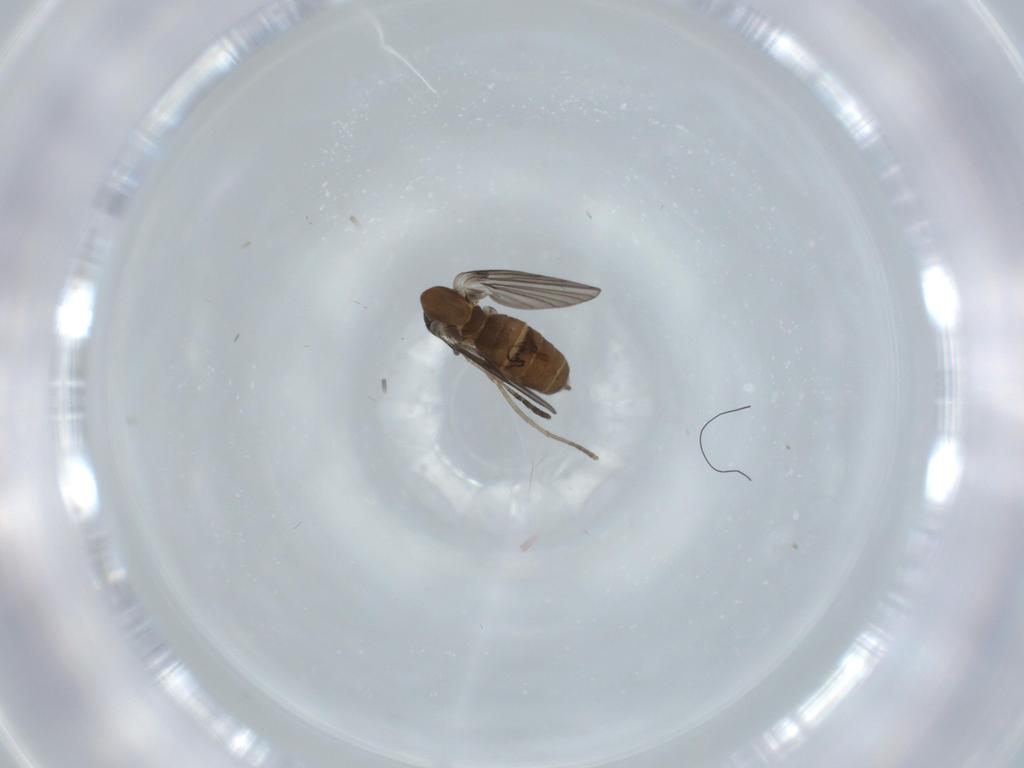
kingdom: Animalia
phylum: Arthropoda
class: Insecta
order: Diptera
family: Psychodidae
